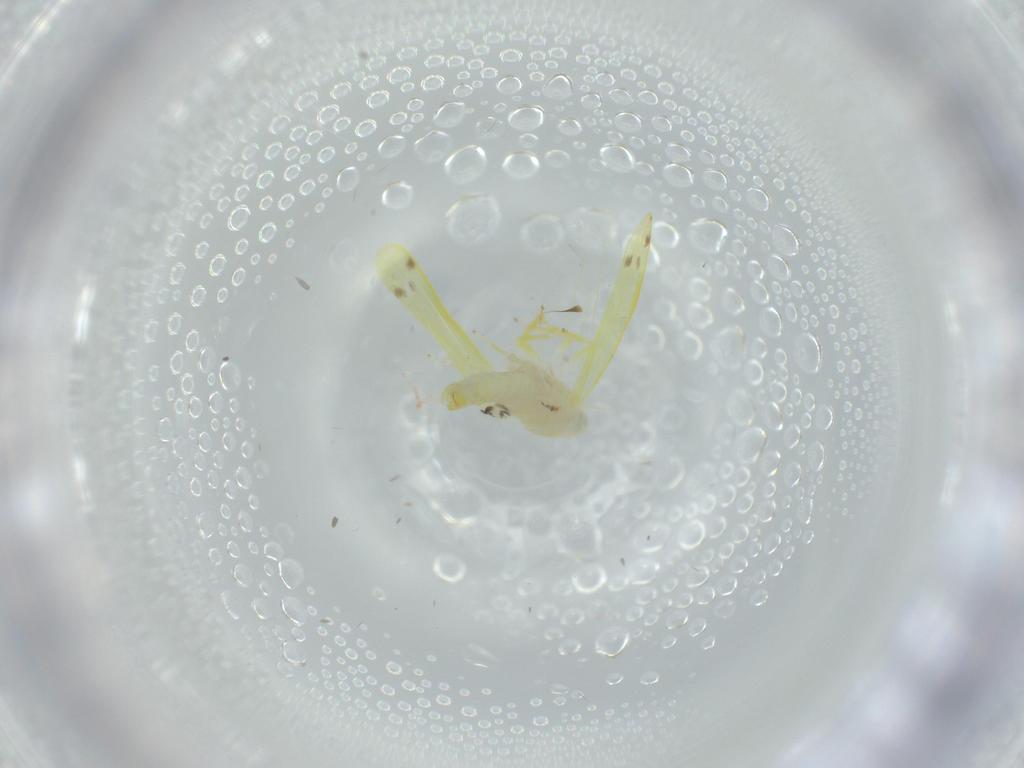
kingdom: Animalia
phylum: Arthropoda
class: Insecta
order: Hemiptera
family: Cicadellidae
